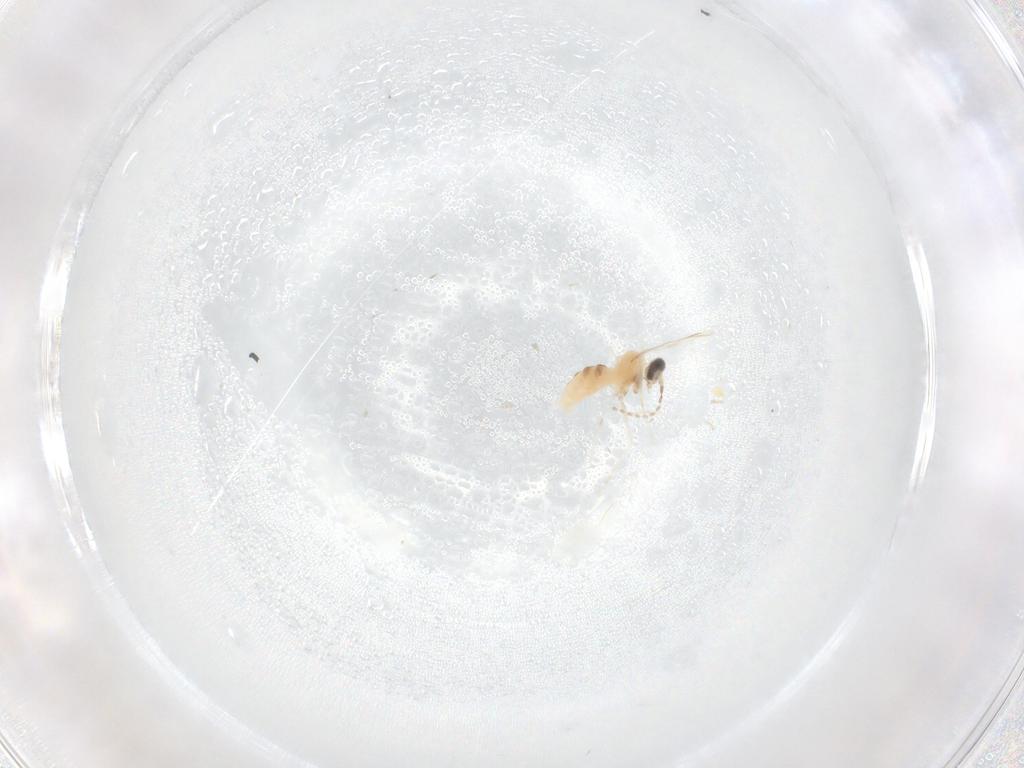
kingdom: Animalia
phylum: Arthropoda
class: Insecta
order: Diptera
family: Cecidomyiidae
